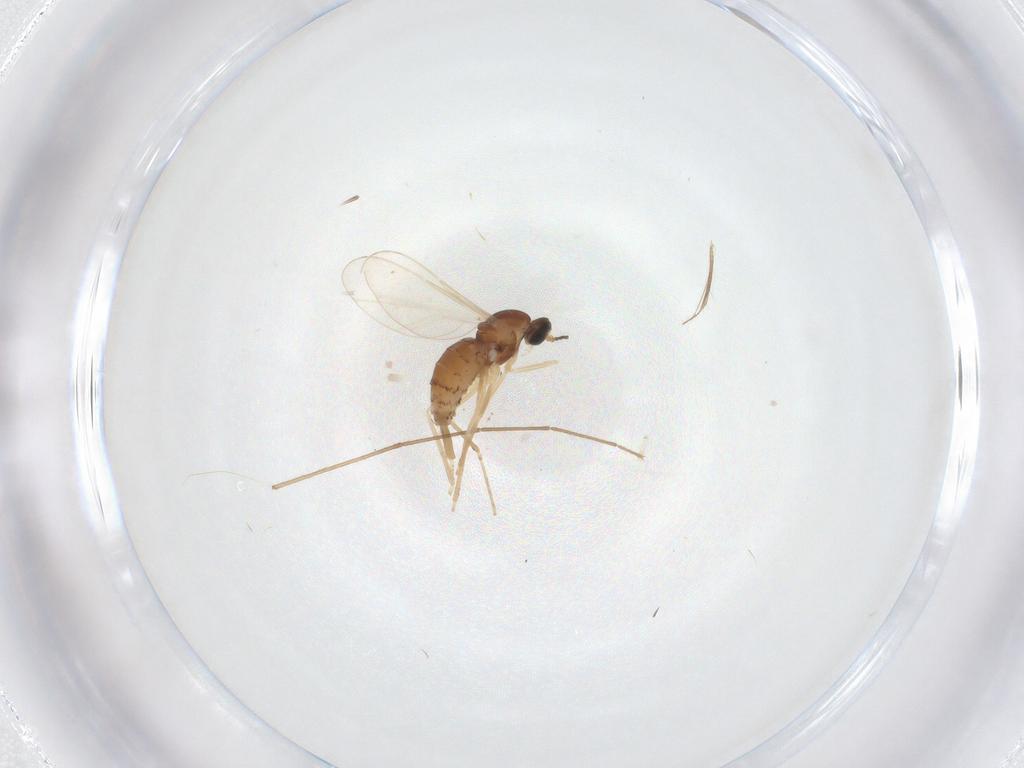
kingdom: Animalia
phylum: Arthropoda
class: Insecta
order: Diptera
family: Cecidomyiidae
